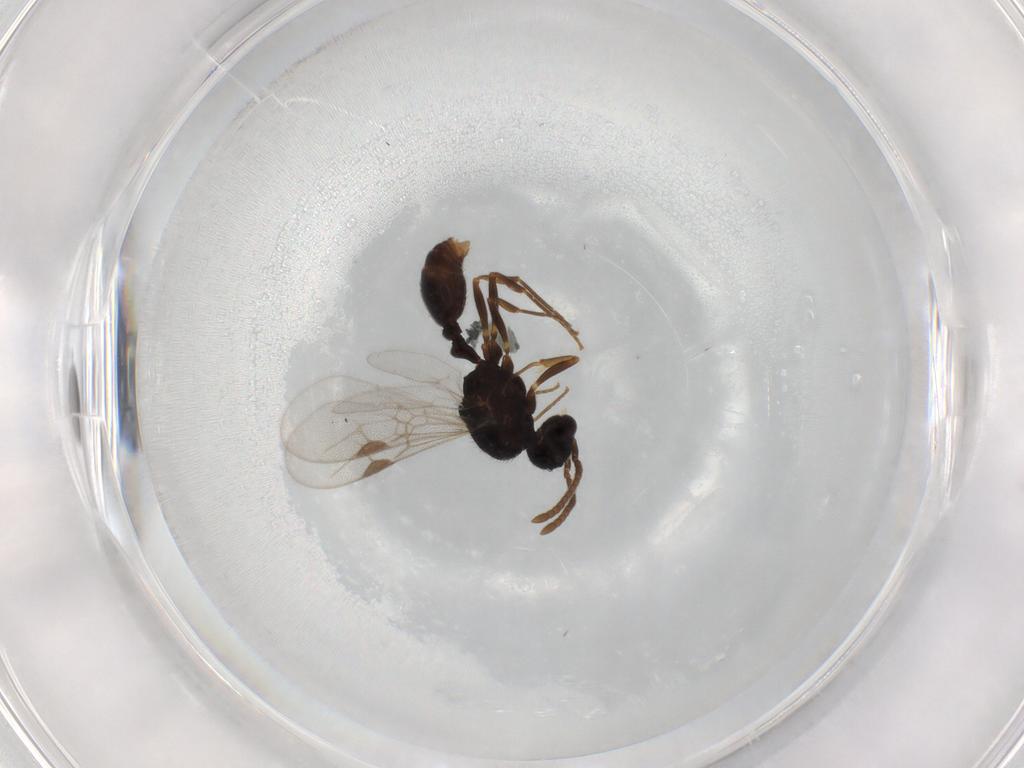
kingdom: Animalia
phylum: Arthropoda
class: Insecta
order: Hymenoptera
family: Formicidae
